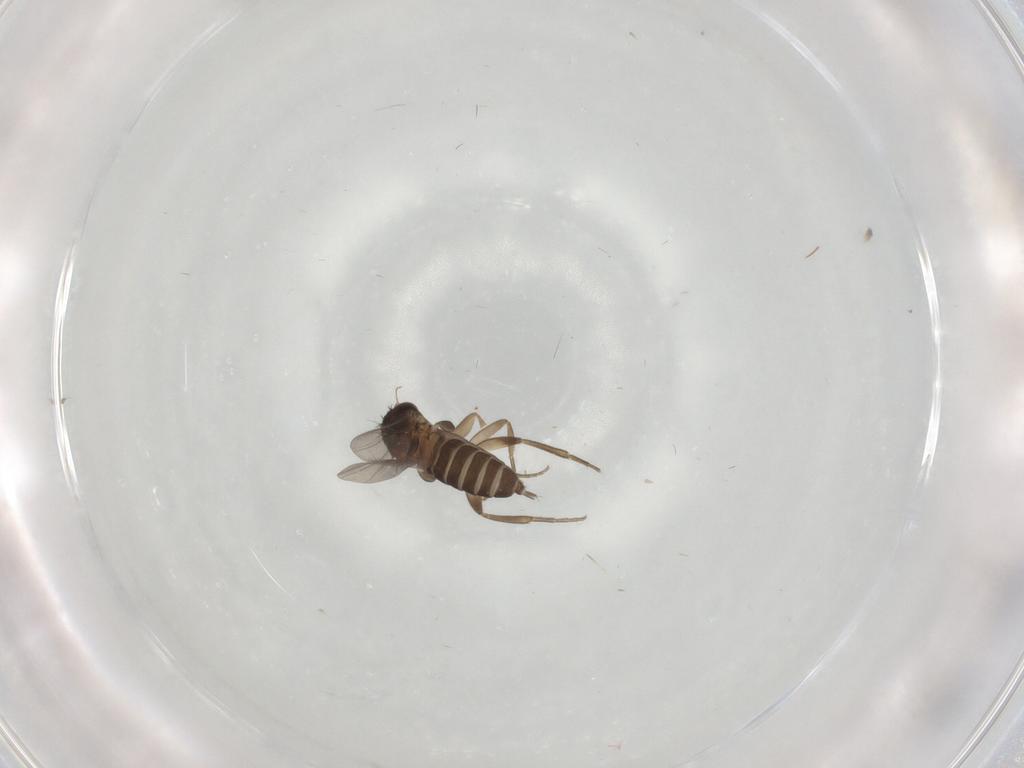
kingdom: Animalia
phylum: Arthropoda
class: Insecta
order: Diptera
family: Phoridae
